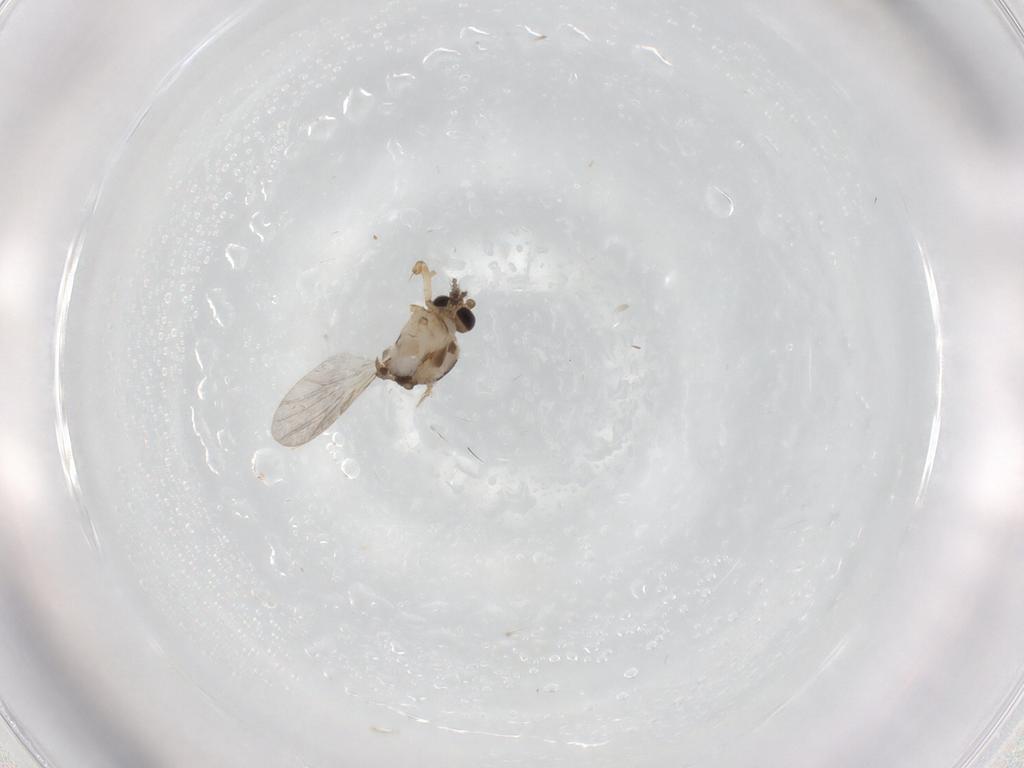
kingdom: Animalia
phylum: Arthropoda
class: Insecta
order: Diptera
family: Ceratopogonidae
